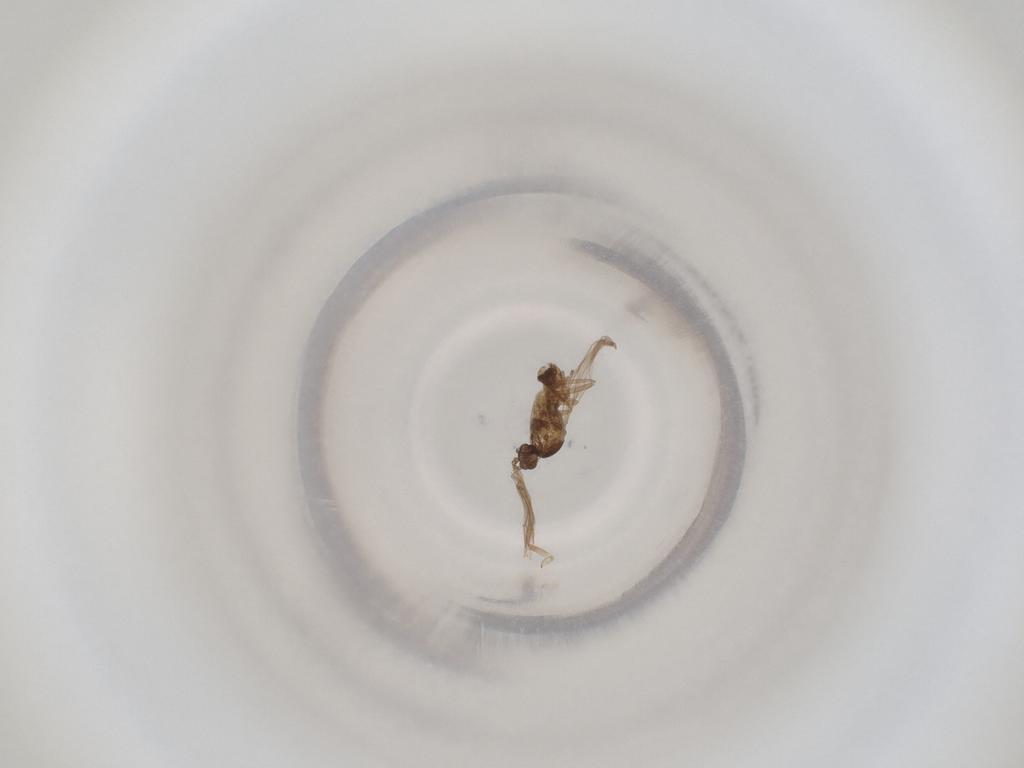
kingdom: Animalia
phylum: Arthropoda
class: Insecta
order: Diptera
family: Cecidomyiidae
